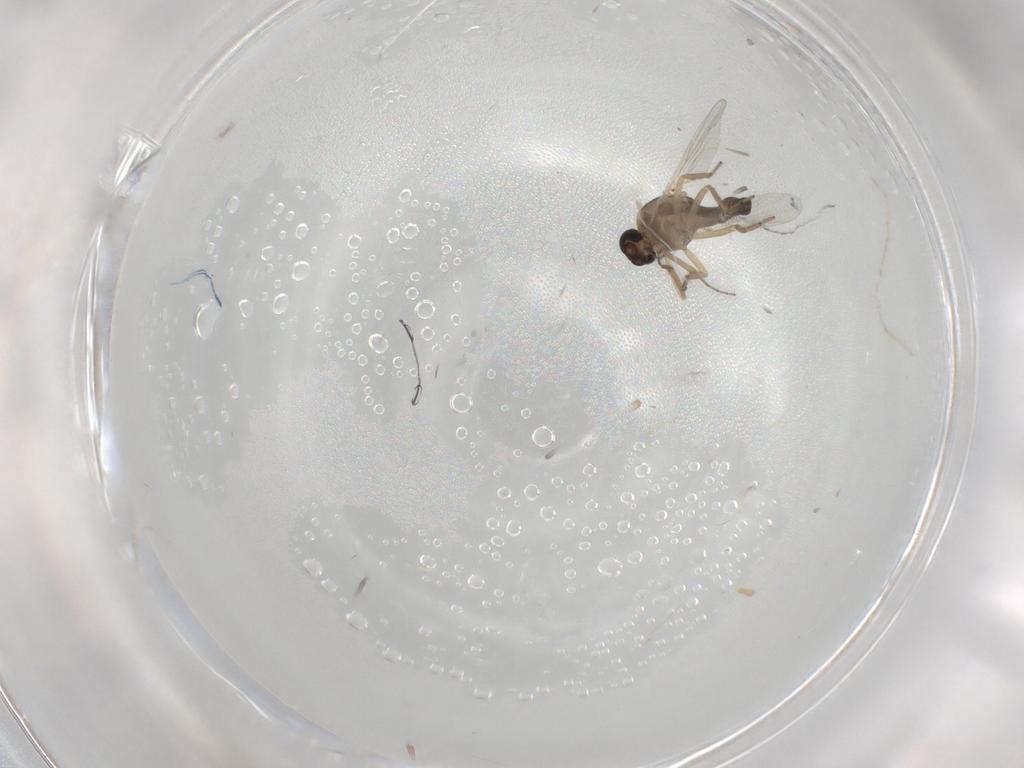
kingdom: Animalia
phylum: Arthropoda
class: Insecta
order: Diptera
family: Ceratopogonidae
